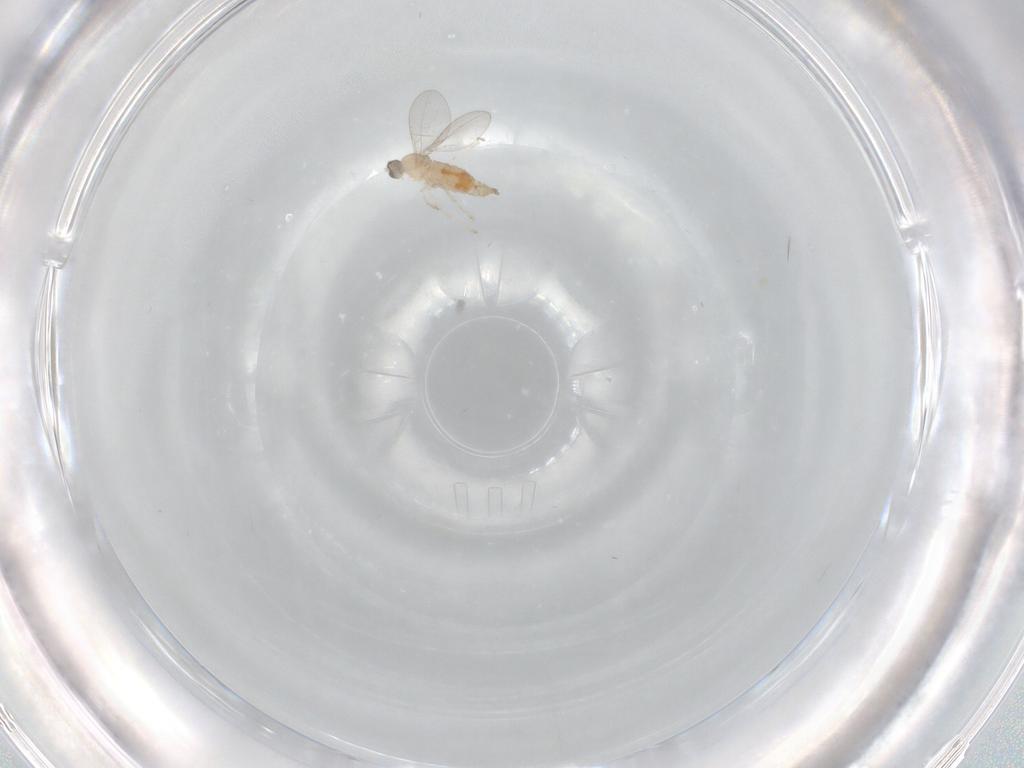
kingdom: Animalia
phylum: Arthropoda
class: Insecta
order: Diptera
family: Sciaridae
